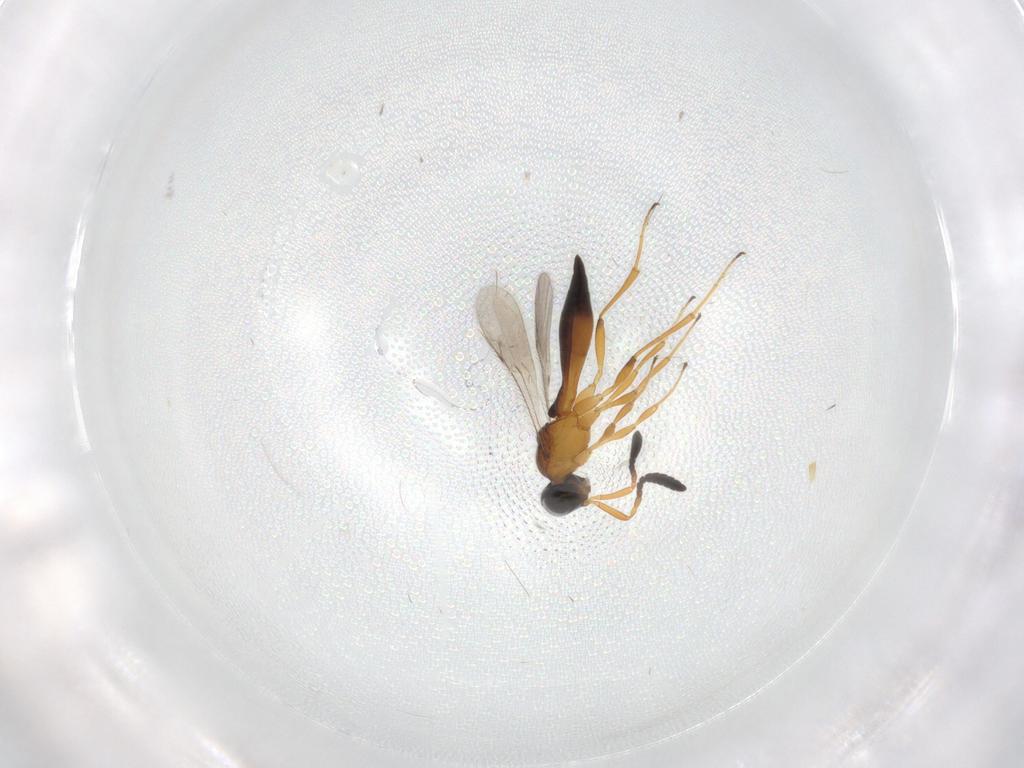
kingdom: Animalia
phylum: Arthropoda
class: Insecta
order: Hymenoptera
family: Scelionidae
